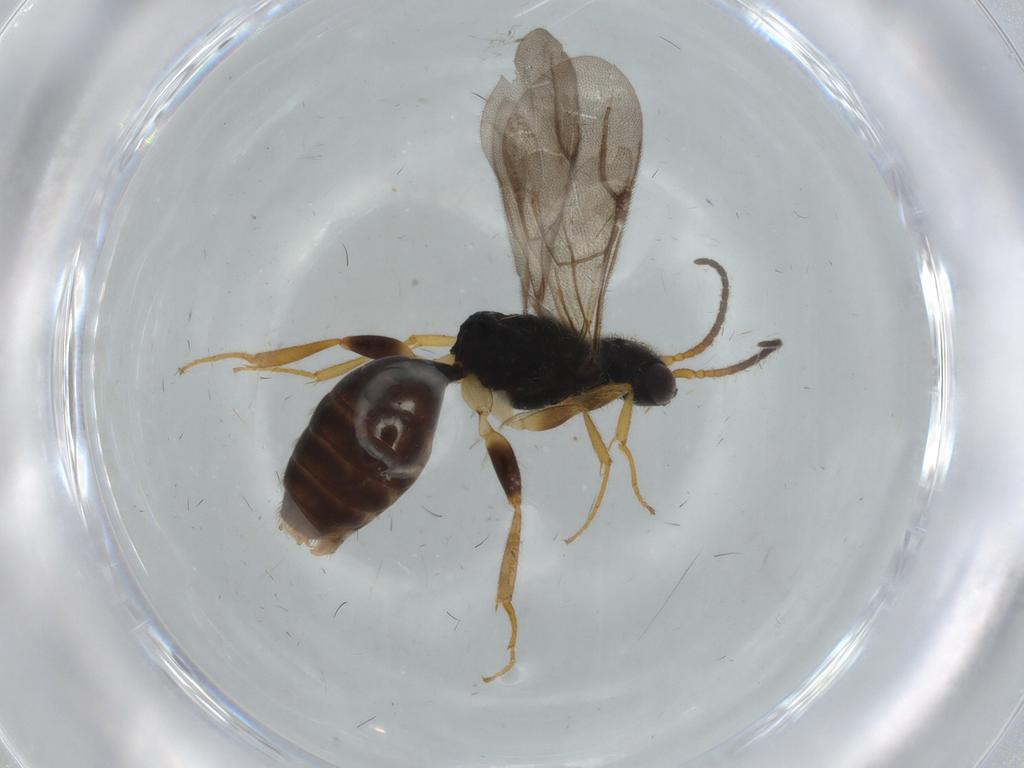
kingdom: Animalia
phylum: Arthropoda
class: Insecta
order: Hymenoptera
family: Bethylidae
